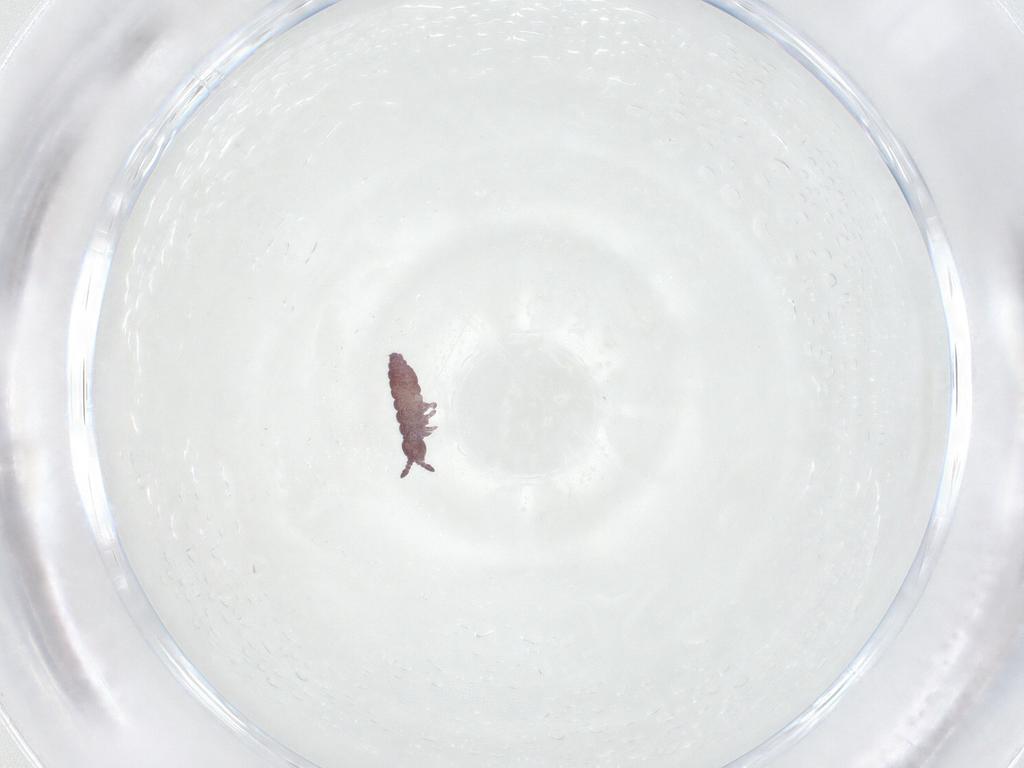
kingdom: Animalia
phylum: Arthropoda
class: Collembola
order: Poduromorpha
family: Hypogastruridae
